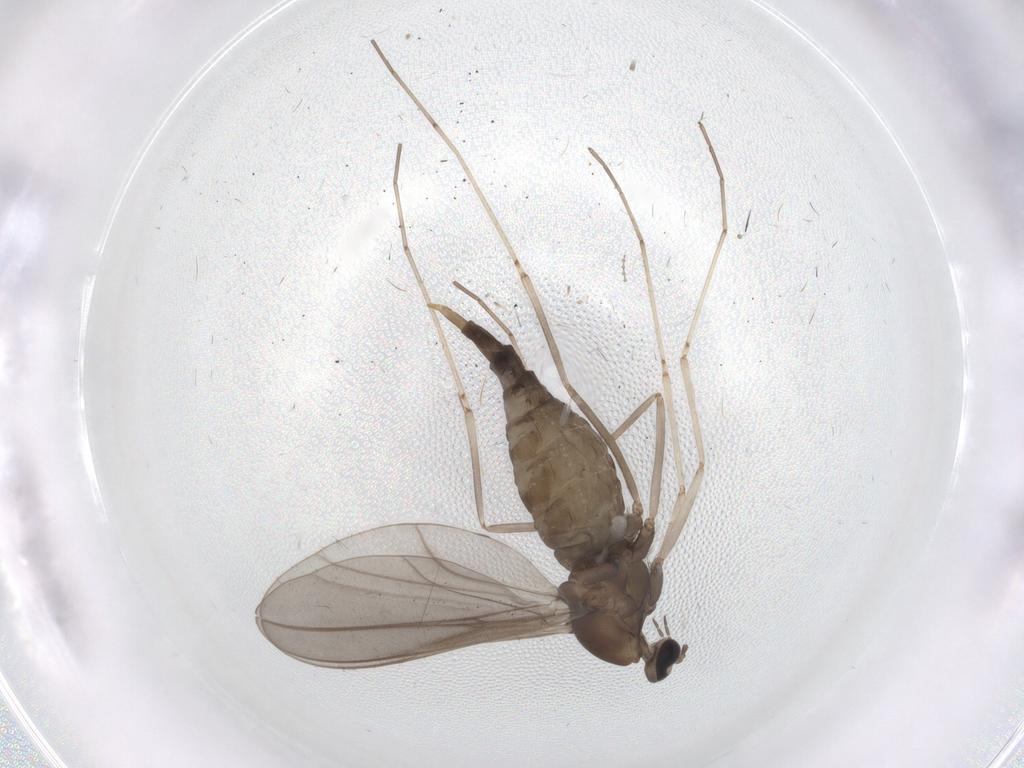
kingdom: Animalia
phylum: Arthropoda
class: Insecta
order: Diptera
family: Cecidomyiidae
